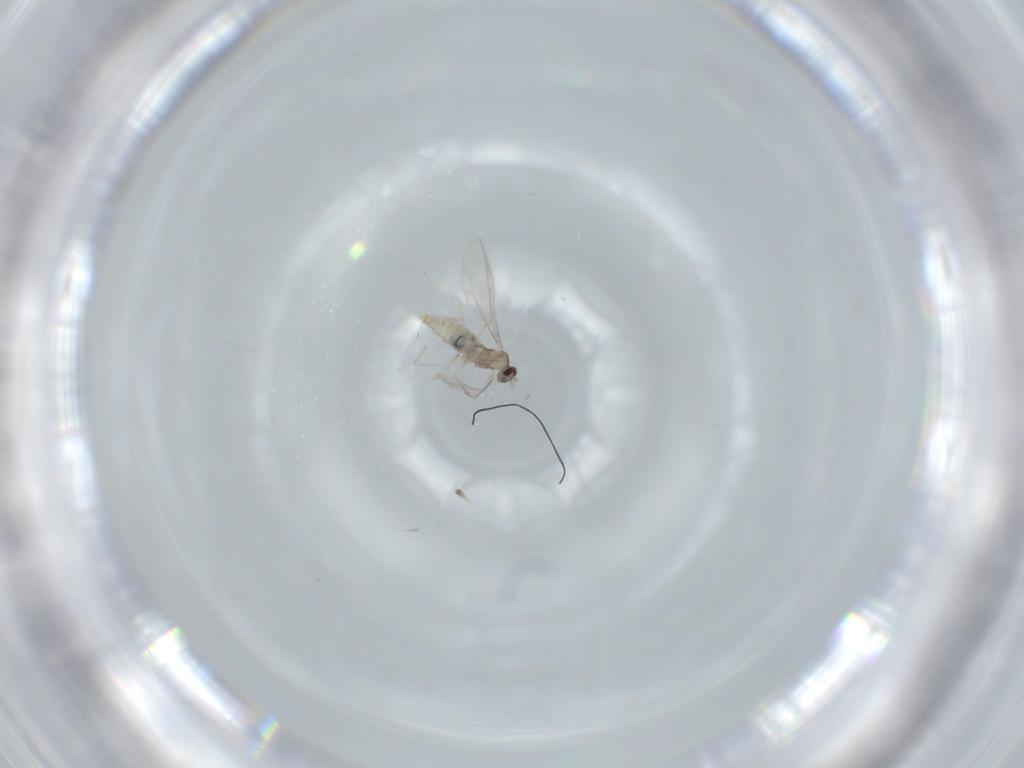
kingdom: Animalia
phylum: Arthropoda
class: Insecta
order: Diptera
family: Cecidomyiidae
